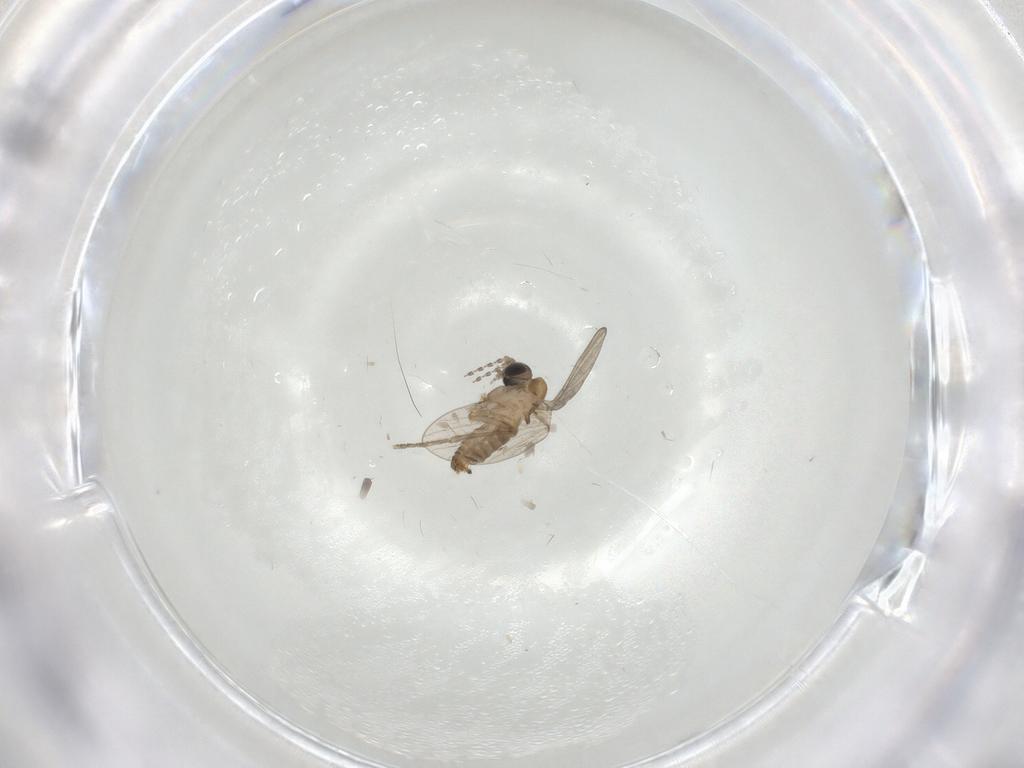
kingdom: Animalia
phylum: Arthropoda
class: Insecta
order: Diptera
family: Psychodidae
